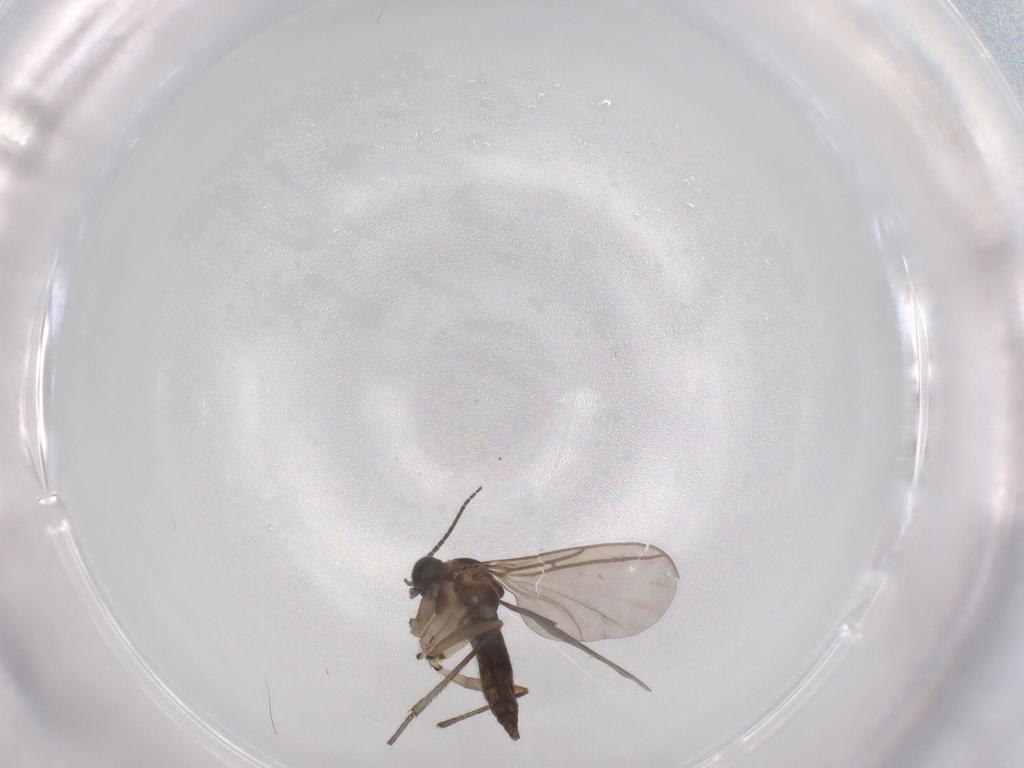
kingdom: Animalia
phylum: Arthropoda
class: Insecta
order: Diptera
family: Sciaridae
